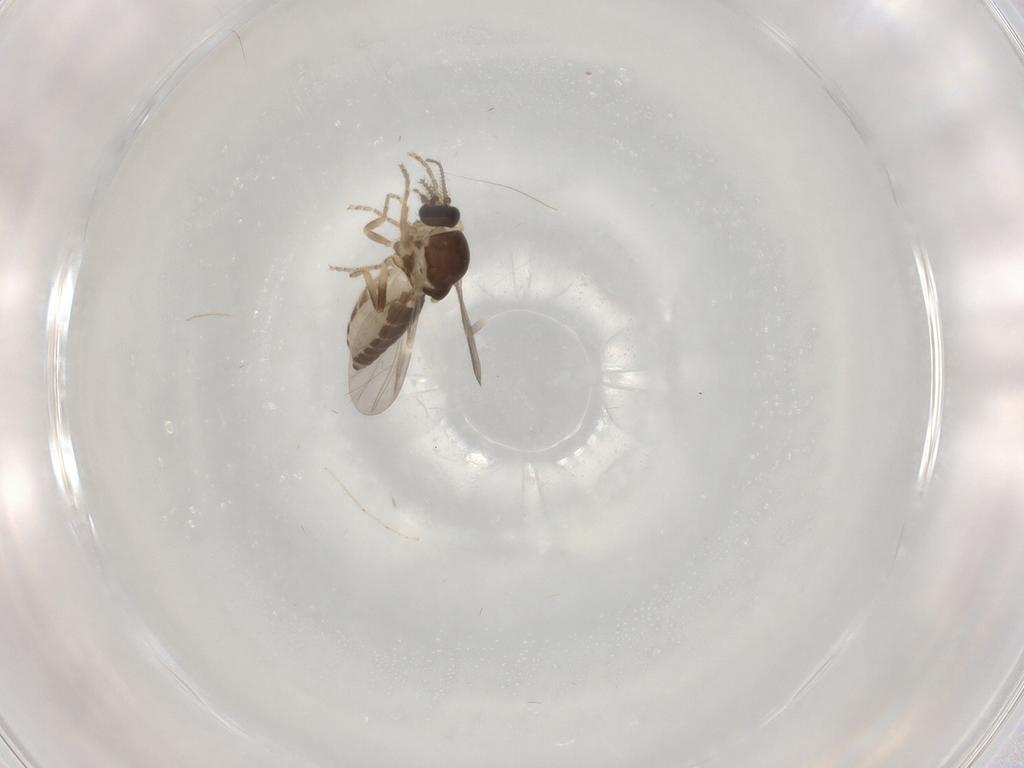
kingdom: Animalia
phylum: Arthropoda
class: Insecta
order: Diptera
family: Ceratopogonidae
